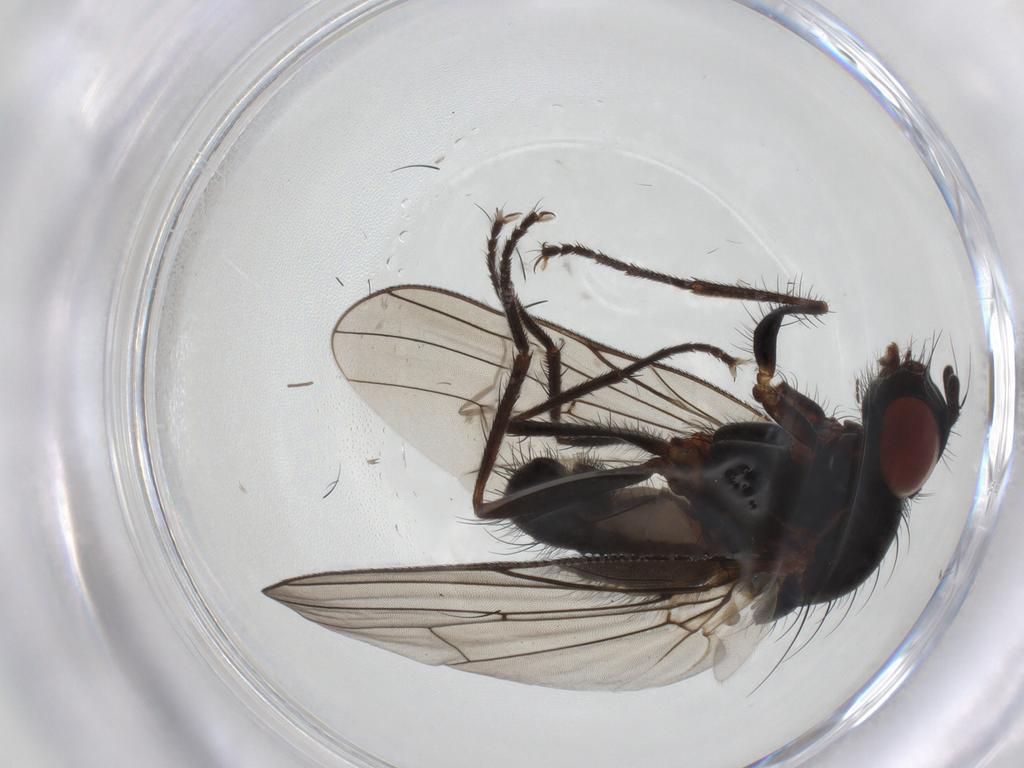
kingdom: Animalia
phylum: Arthropoda
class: Insecta
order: Diptera
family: Anthomyiidae
